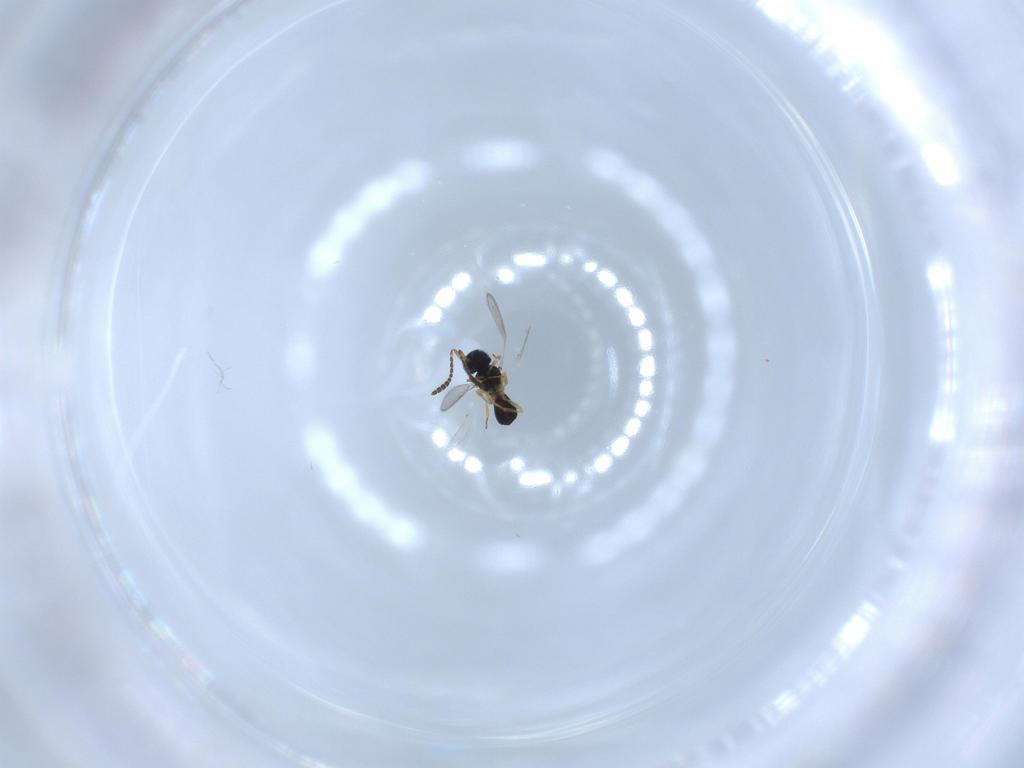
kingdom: Animalia
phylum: Arthropoda
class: Insecta
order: Hymenoptera
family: Scelionidae
